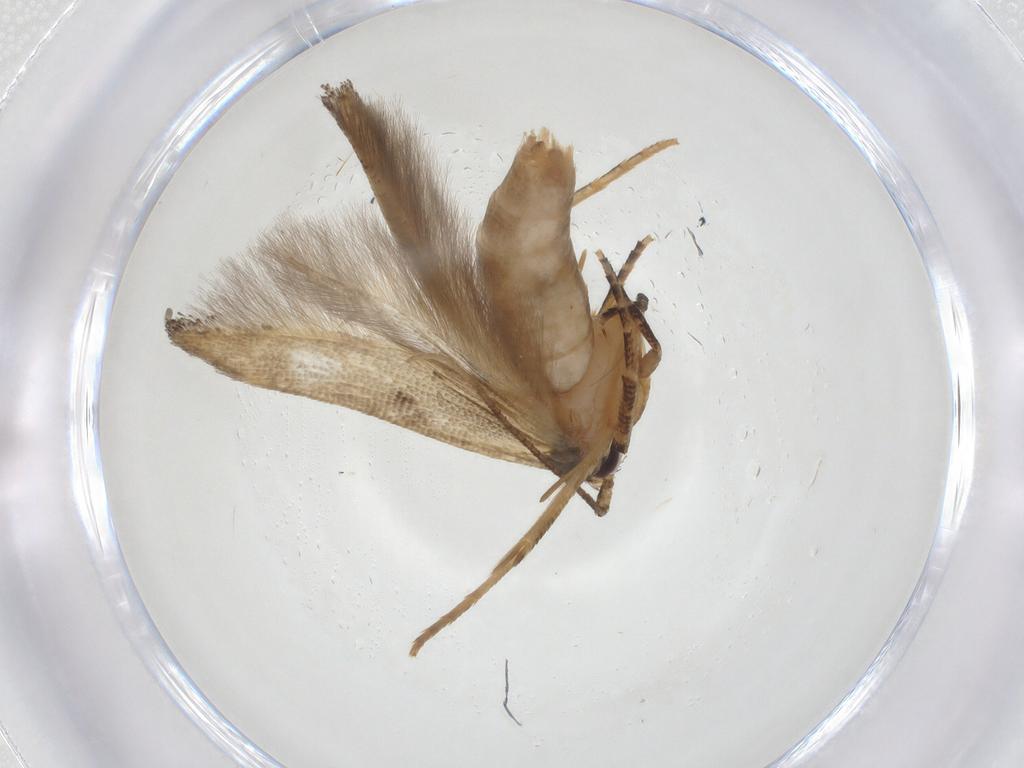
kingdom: Animalia
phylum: Arthropoda
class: Insecta
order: Lepidoptera
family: Cosmopterigidae
